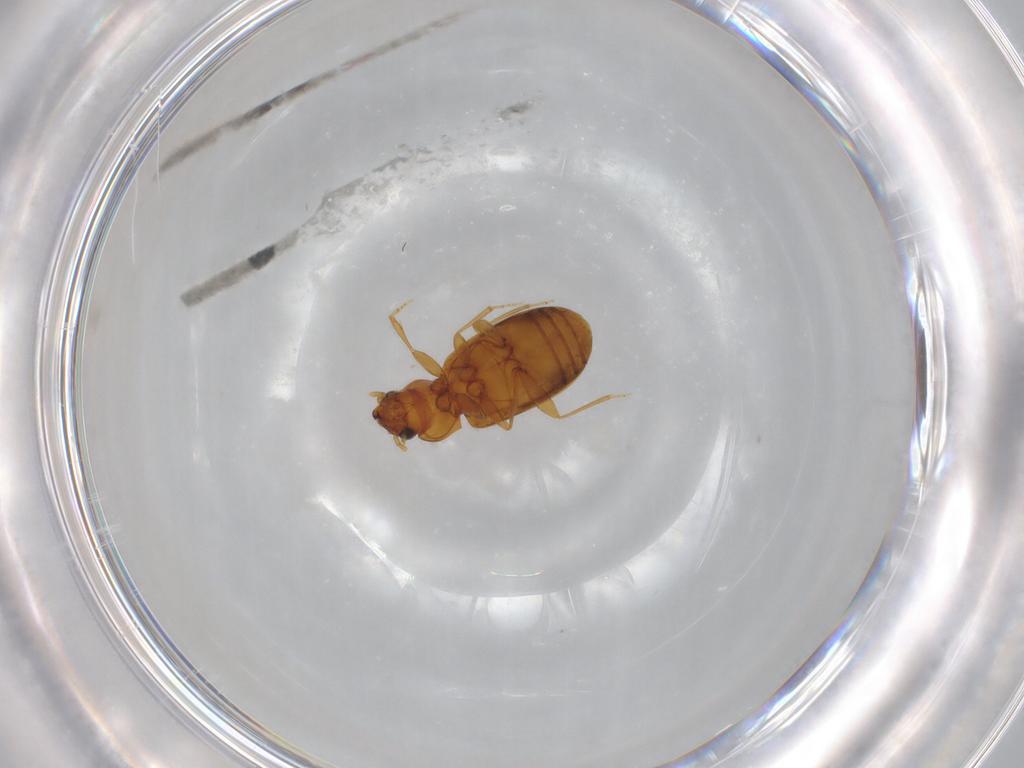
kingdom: Animalia
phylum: Arthropoda
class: Insecta
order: Coleoptera
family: Carabidae
